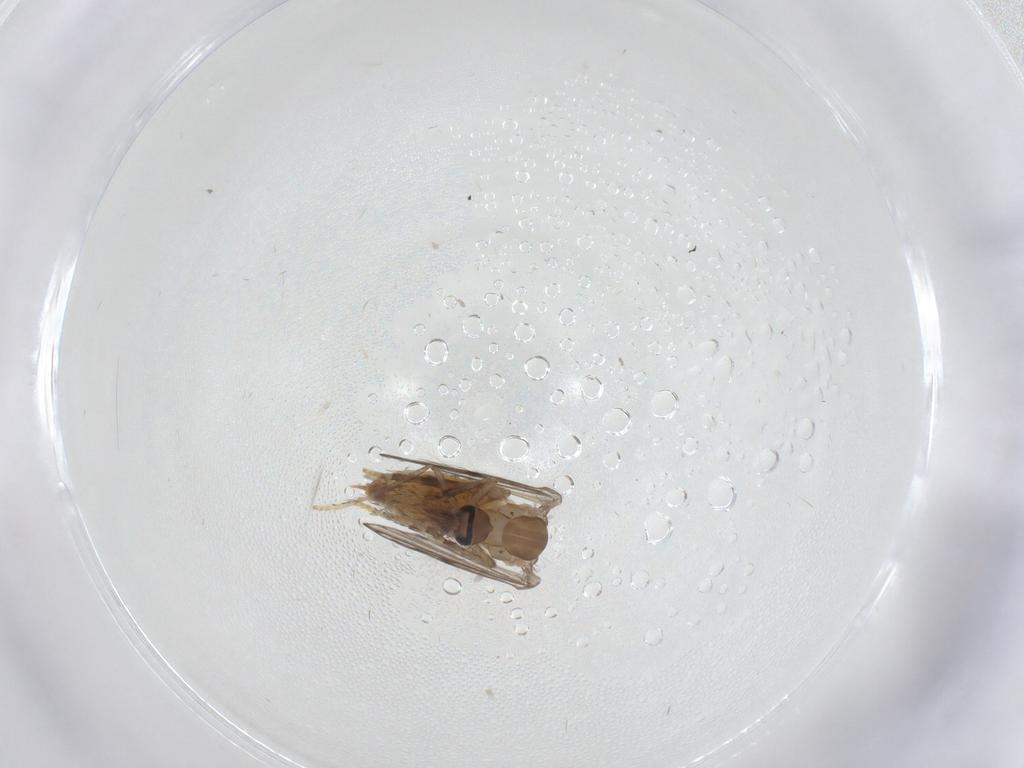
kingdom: Animalia
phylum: Arthropoda
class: Insecta
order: Diptera
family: Psychodidae
